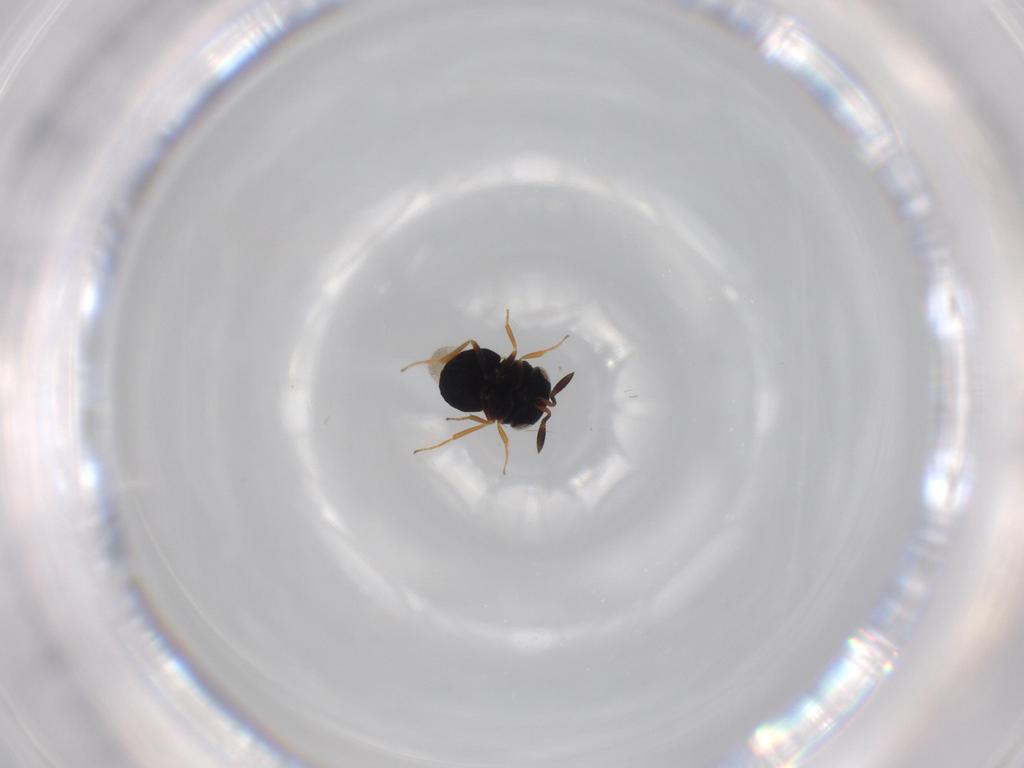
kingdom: Animalia
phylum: Arthropoda
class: Insecta
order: Hymenoptera
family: Scelionidae
